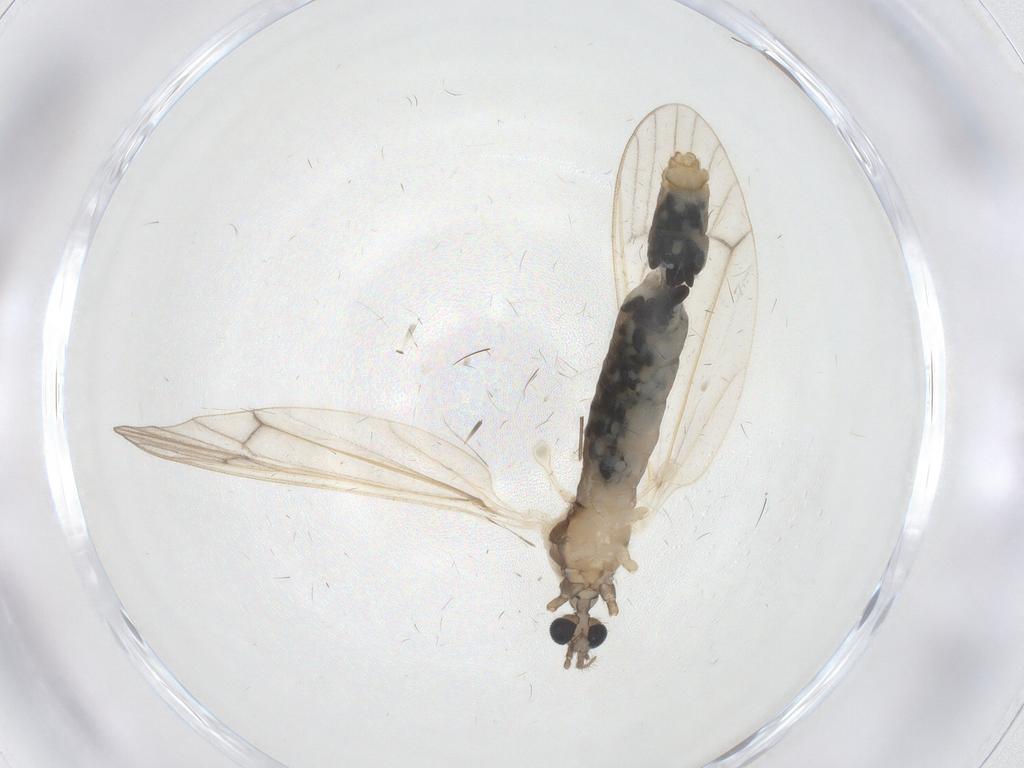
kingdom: Animalia
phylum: Arthropoda
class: Insecta
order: Diptera
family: Limoniidae
